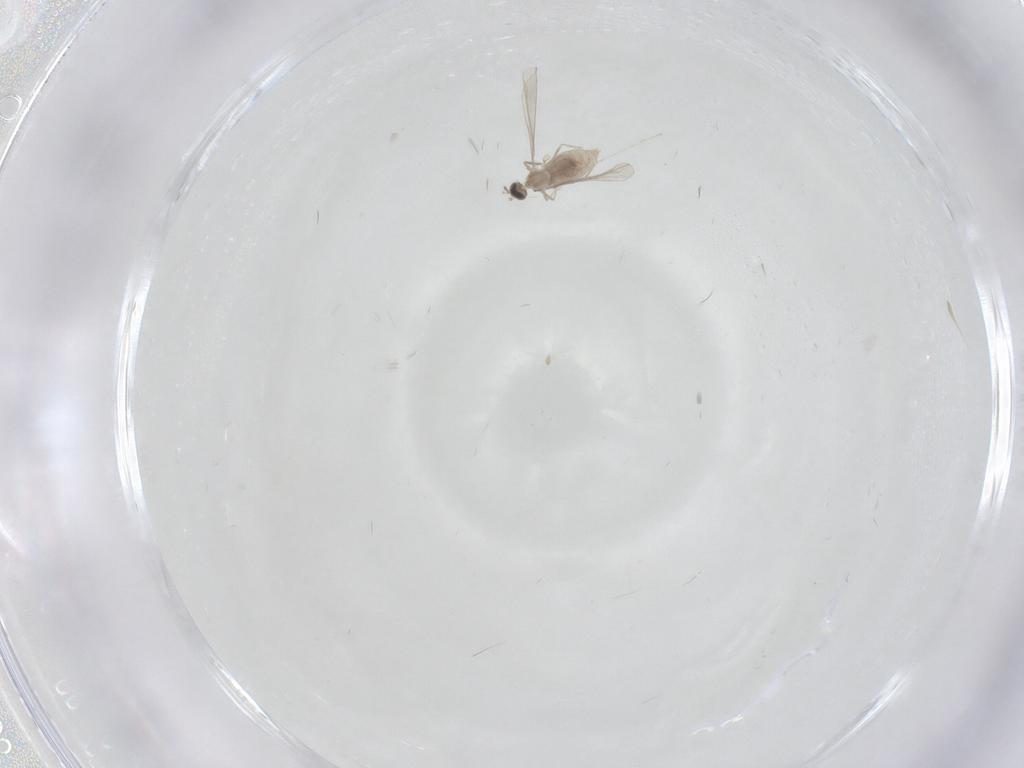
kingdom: Animalia
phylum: Arthropoda
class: Insecta
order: Diptera
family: Cecidomyiidae
